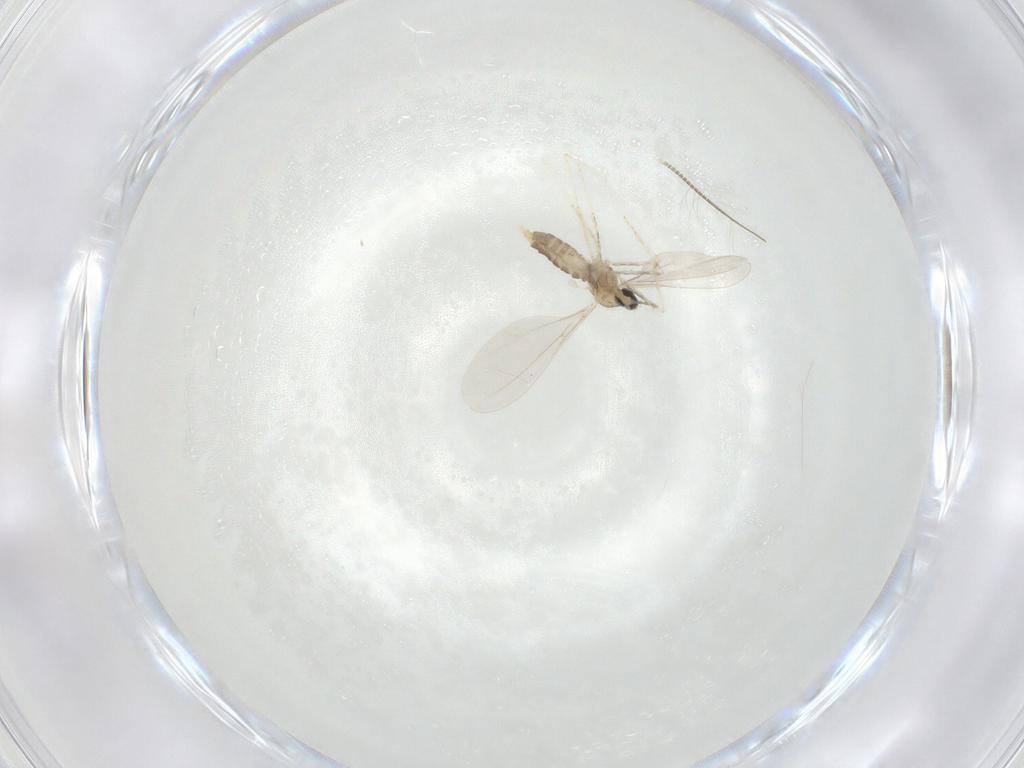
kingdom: Animalia
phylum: Arthropoda
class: Insecta
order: Diptera
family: Cecidomyiidae
